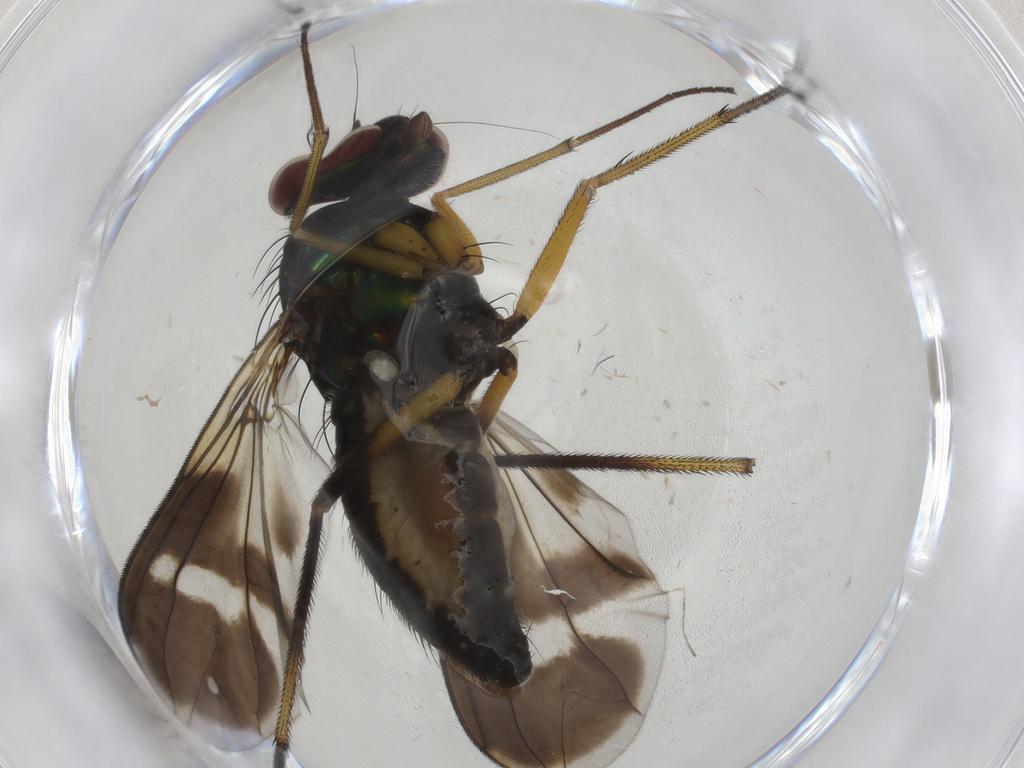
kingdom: Animalia
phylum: Arthropoda
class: Insecta
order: Diptera
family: Dolichopodidae
